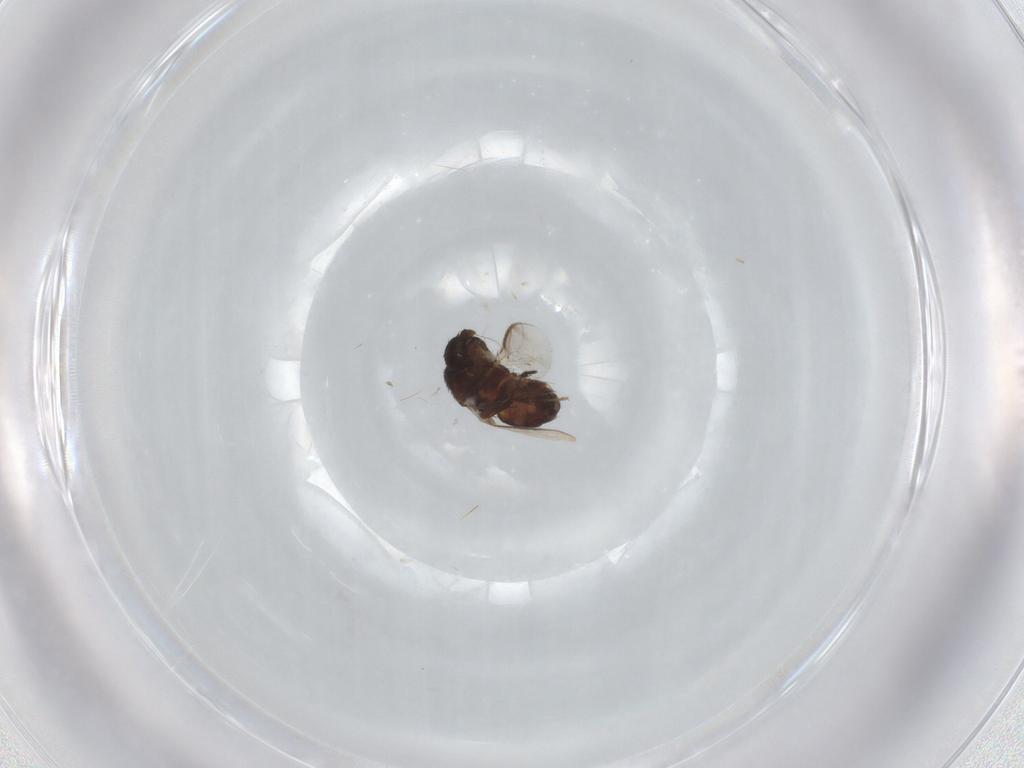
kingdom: Animalia
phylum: Arthropoda
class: Insecta
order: Diptera
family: Sphaeroceridae
